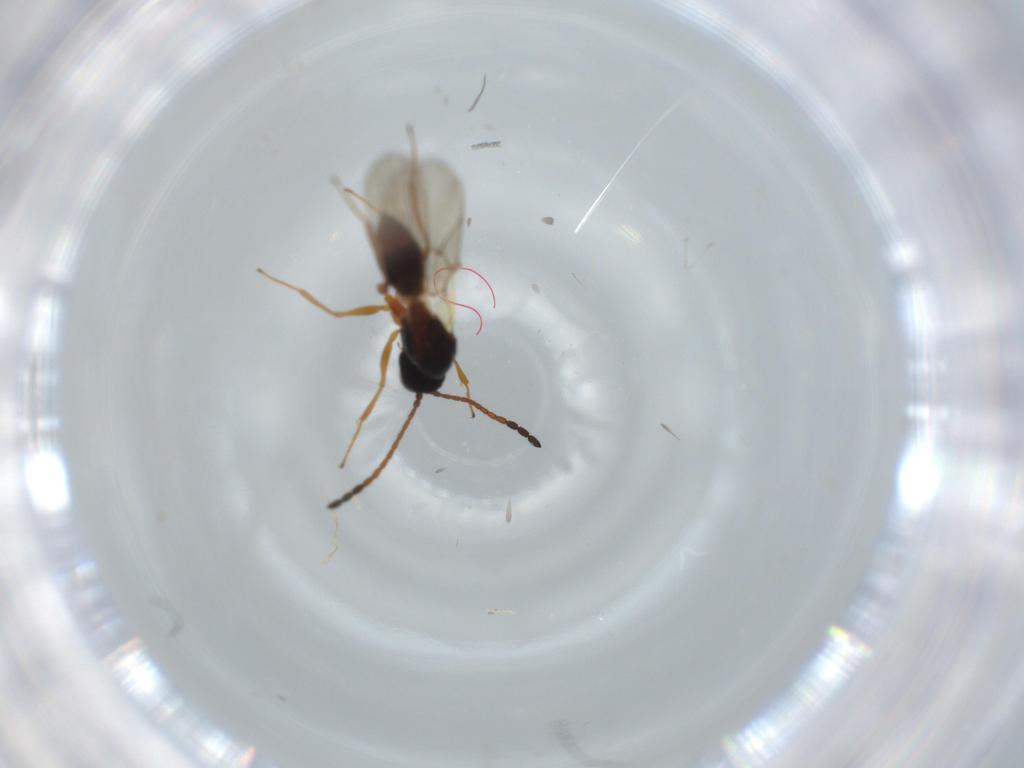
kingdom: Animalia
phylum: Arthropoda
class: Insecta
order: Hymenoptera
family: Figitidae
